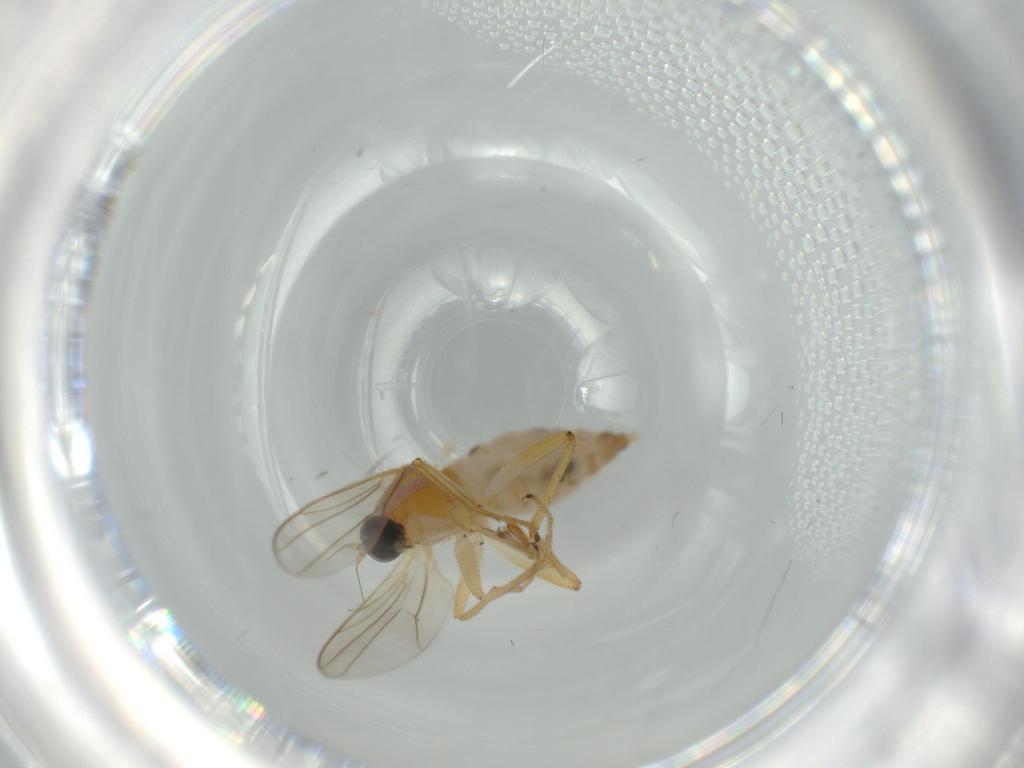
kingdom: Animalia
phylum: Arthropoda
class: Insecta
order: Diptera
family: Hybotidae
